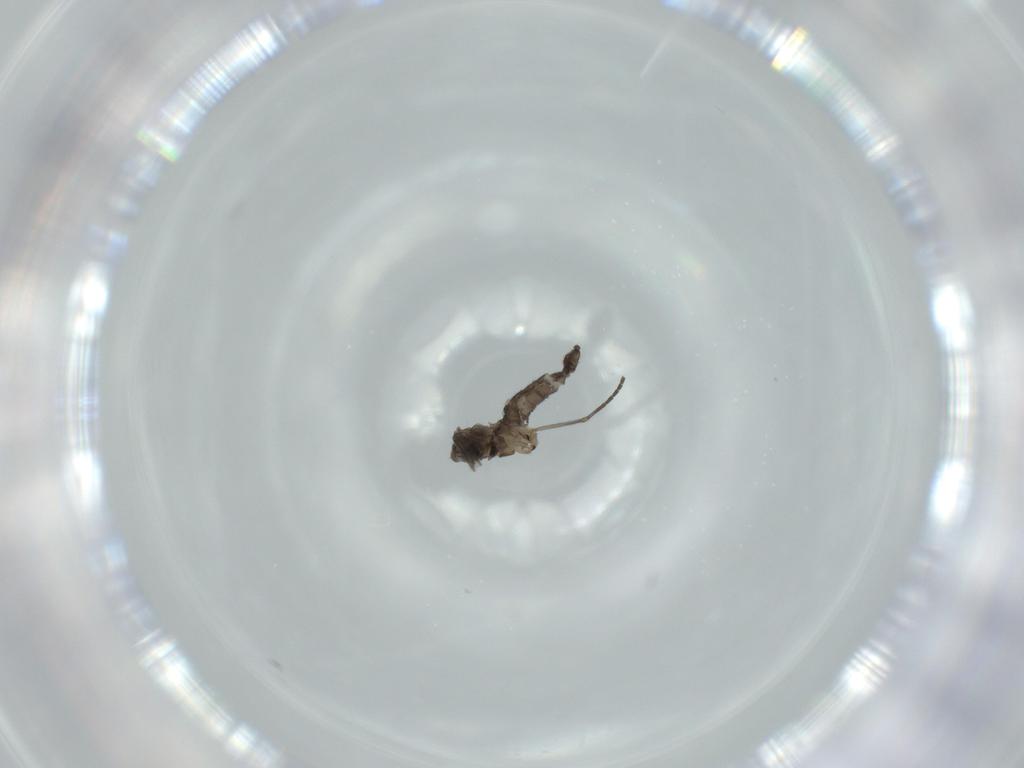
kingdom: Animalia
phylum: Arthropoda
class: Insecta
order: Diptera
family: Sciaridae
